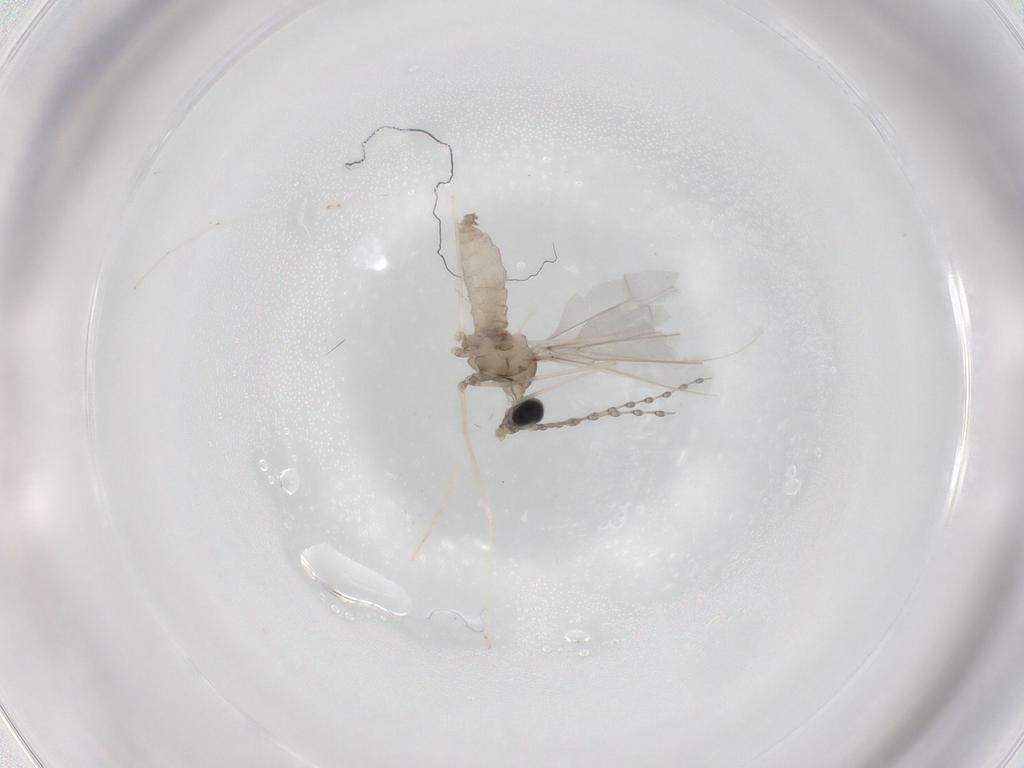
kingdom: Animalia
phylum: Arthropoda
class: Insecta
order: Diptera
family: Cecidomyiidae
